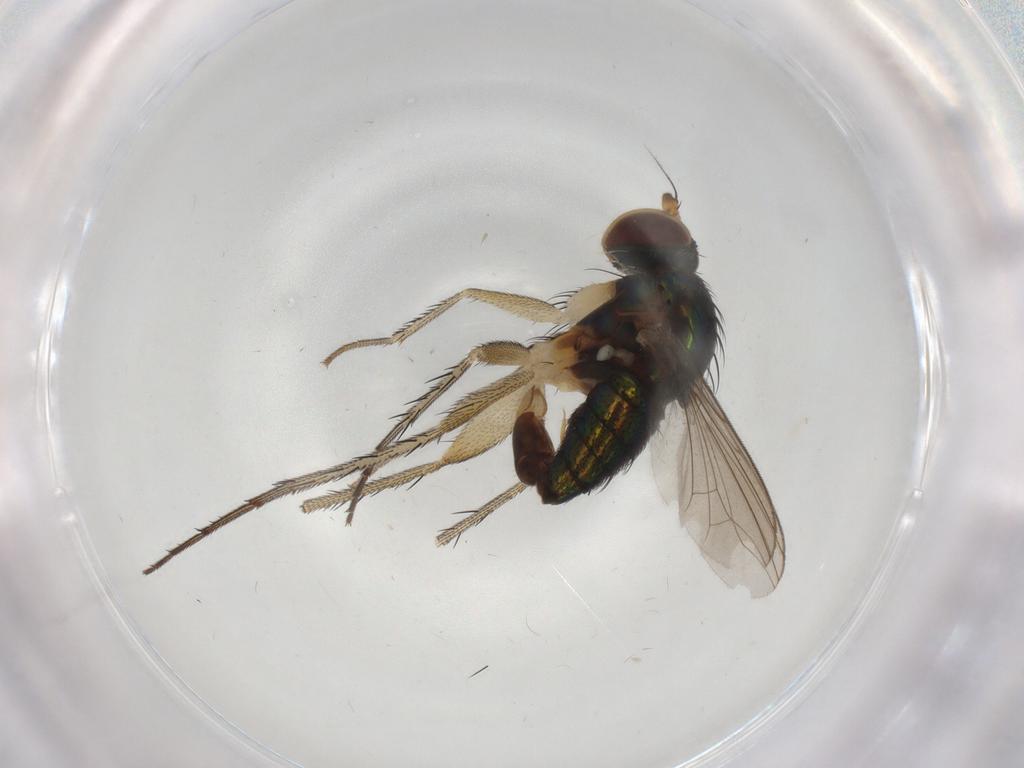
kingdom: Animalia
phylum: Arthropoda
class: Insecta
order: Diptera
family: Dolichopodidae
